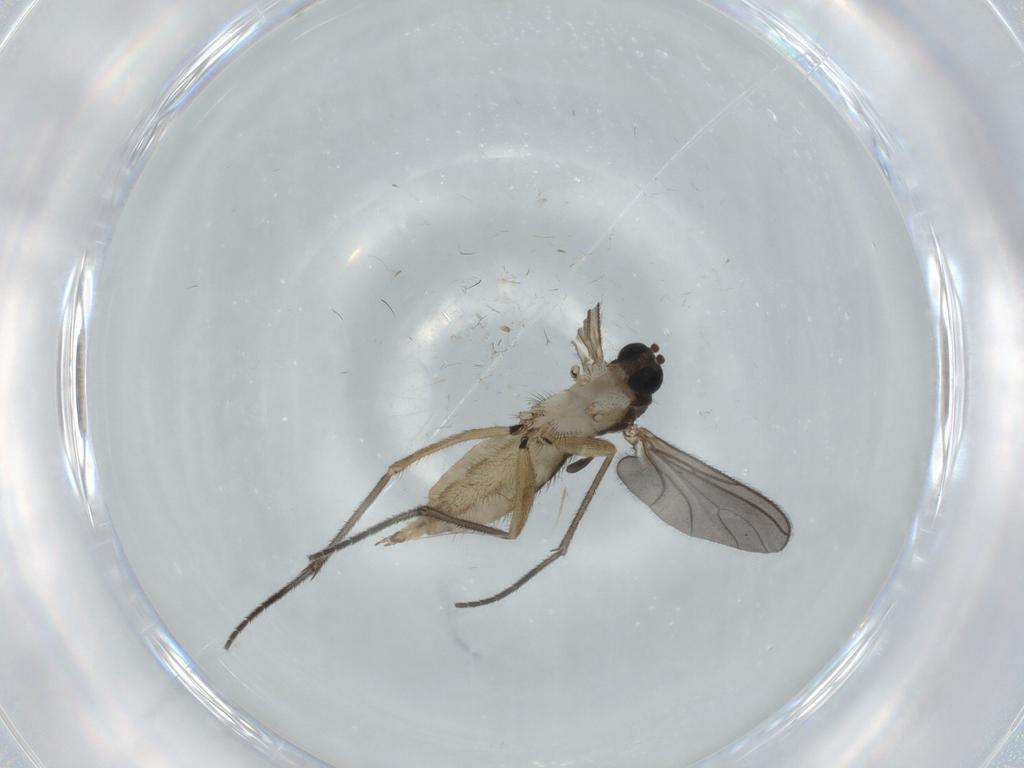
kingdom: Animalia
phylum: Arthropoda
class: Insecta
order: Diptera
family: Sciaridae
